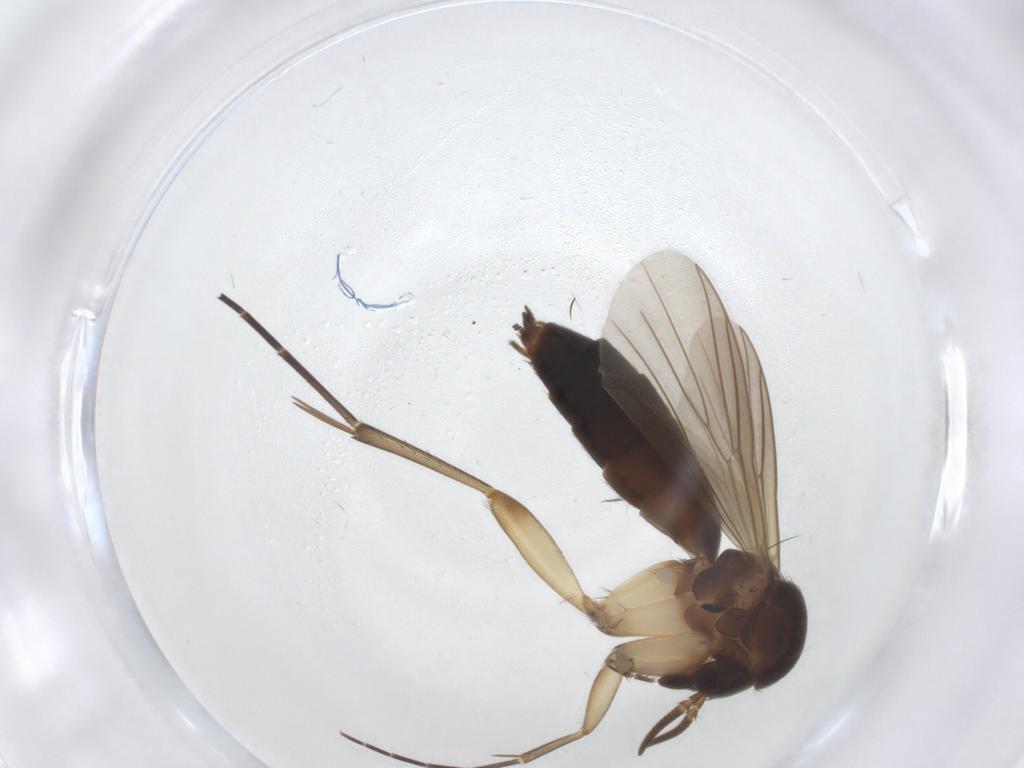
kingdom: Animalia
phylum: Arthropoda
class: Insecta
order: Diptera
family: Mycetophilidae
